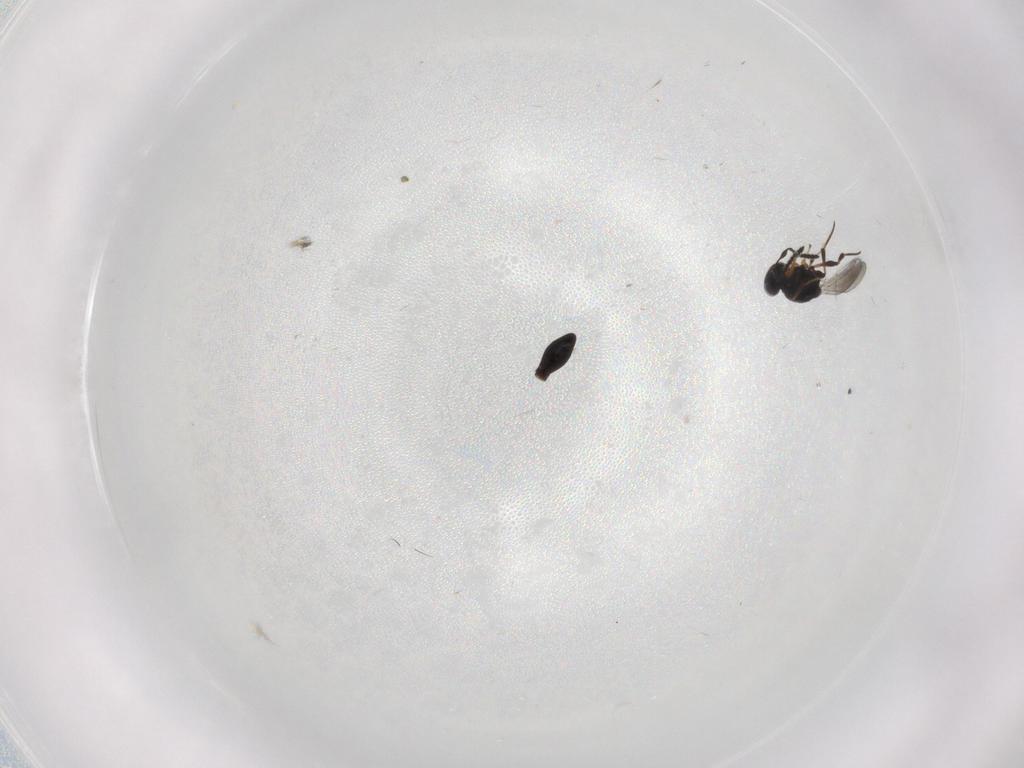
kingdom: Animalia
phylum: Arthropoda
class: Insecta
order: Hymenoptera
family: Platygastridae
